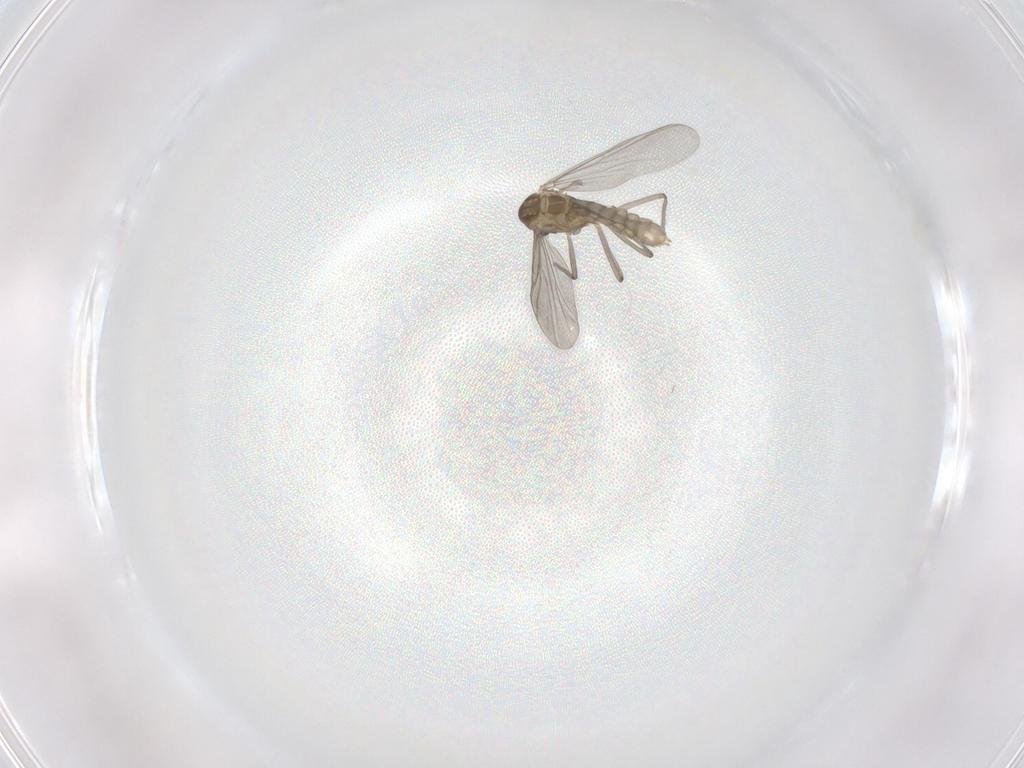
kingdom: Animalia
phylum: Arthropoda
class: Insecta
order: Diptera
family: Chironomidae
